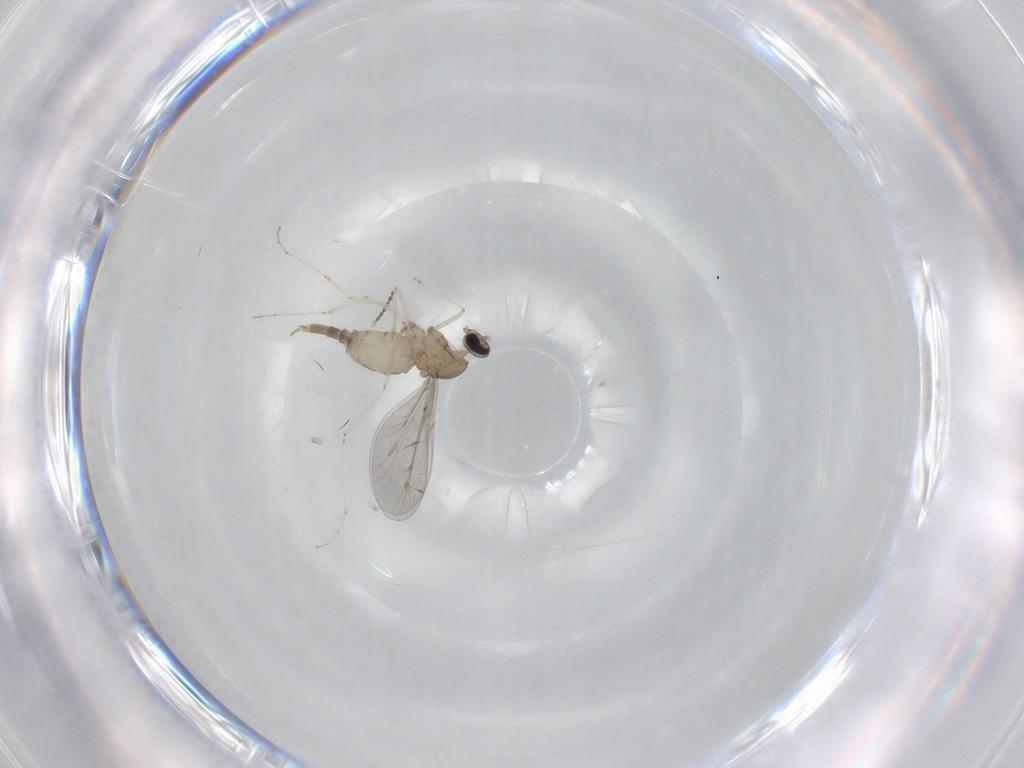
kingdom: Animalia
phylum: Arthropoda
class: Insecta
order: Diptera
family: Cecidomyiidae
